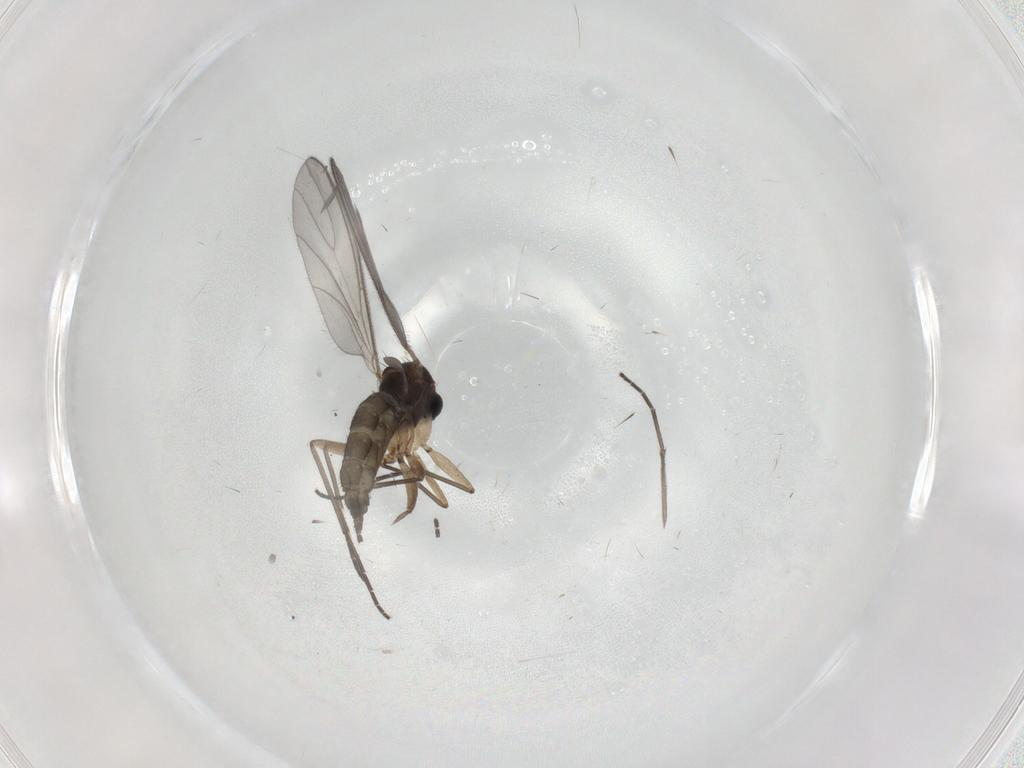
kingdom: Animalia
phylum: Arthropoda
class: Insecta
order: Diptera
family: Sciaridae
